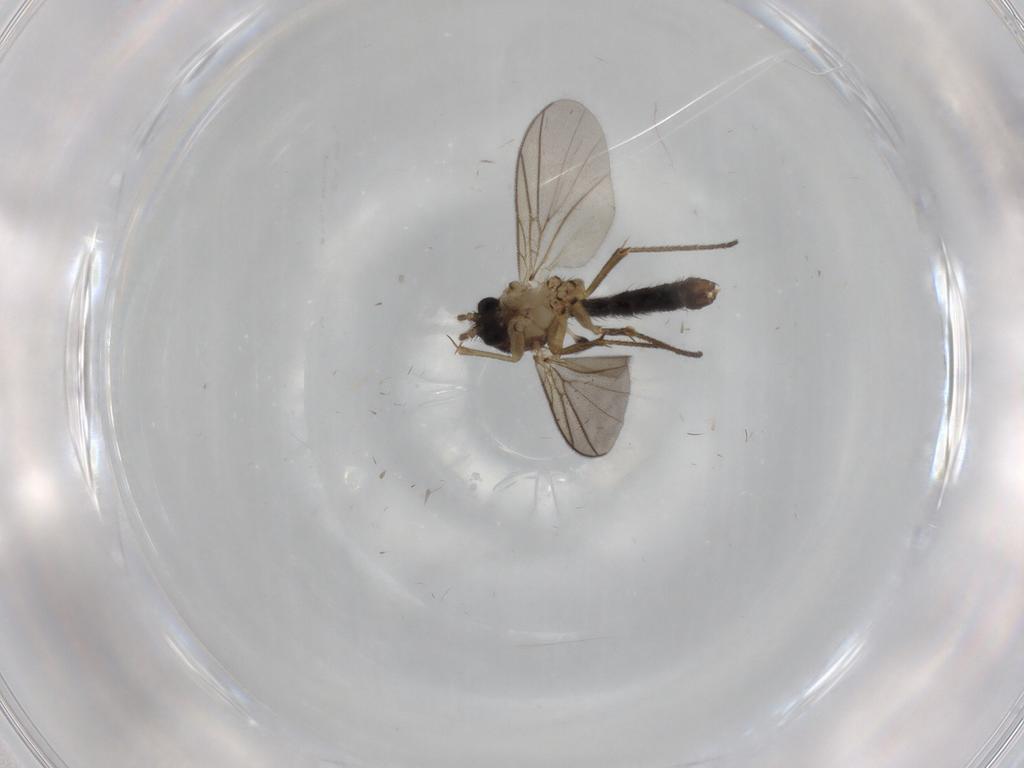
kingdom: Animalia
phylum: Arthropoda
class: Insecta
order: Diptera
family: Mycetophilidae
